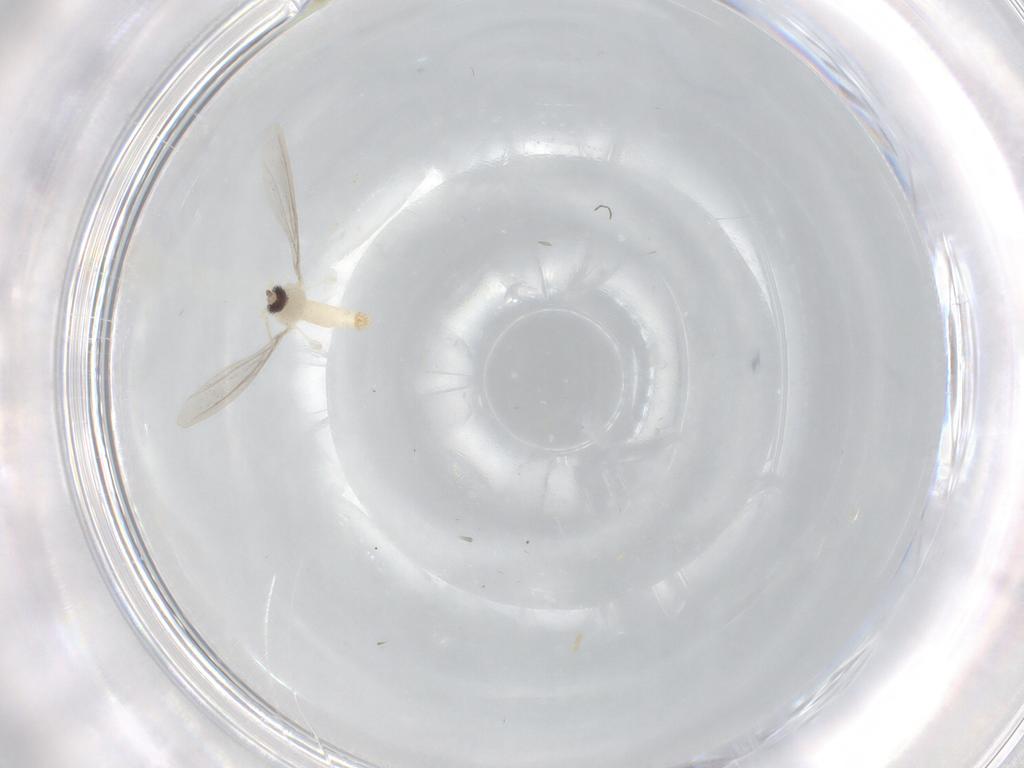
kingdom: Animalia
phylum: Arthropoda
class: Insecta
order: Diptera
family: Cecidomyiidae
